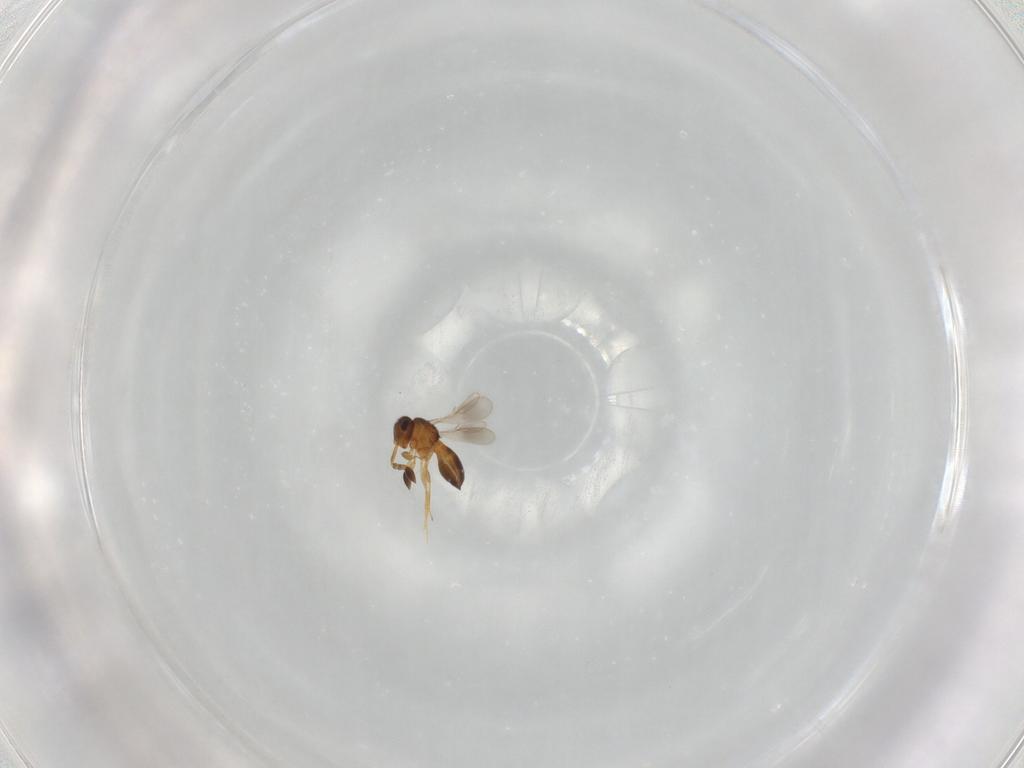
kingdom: Animalia
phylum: Arthropoda
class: Insecta
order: Hymenoptera
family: Scelionidae
